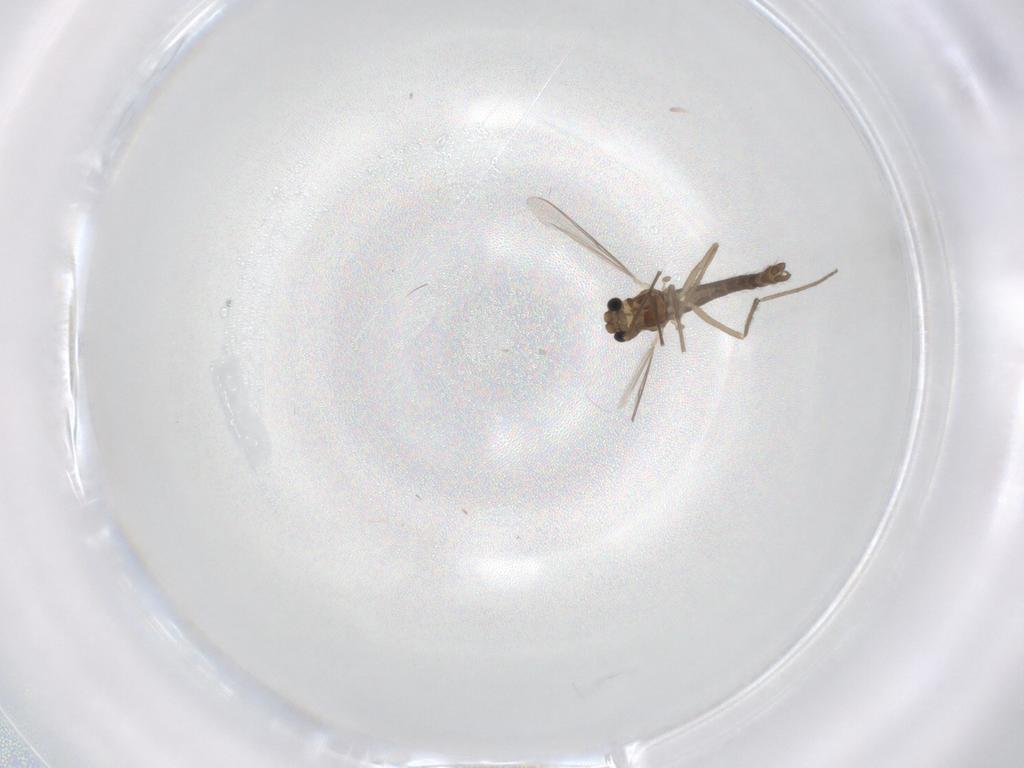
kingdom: Animalia
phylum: Arthropoda
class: Insecta
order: Diptera
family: Chironomidae
